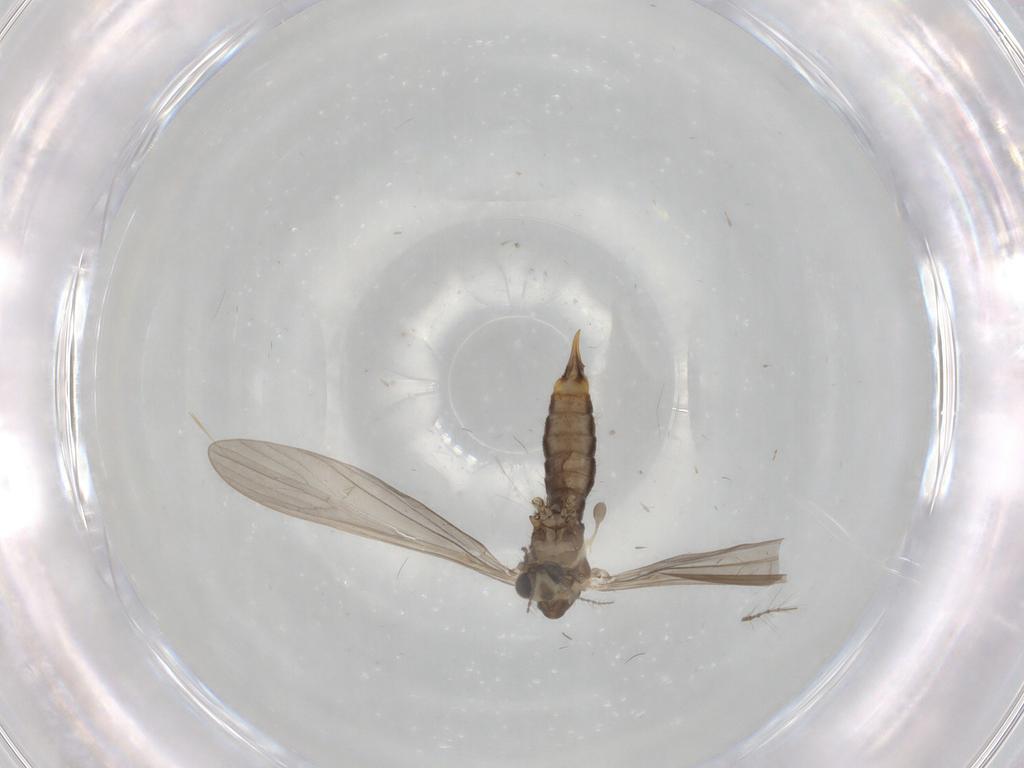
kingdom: Animalia
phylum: Arthropoda
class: Insecta
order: Diptera
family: Limoniidae
